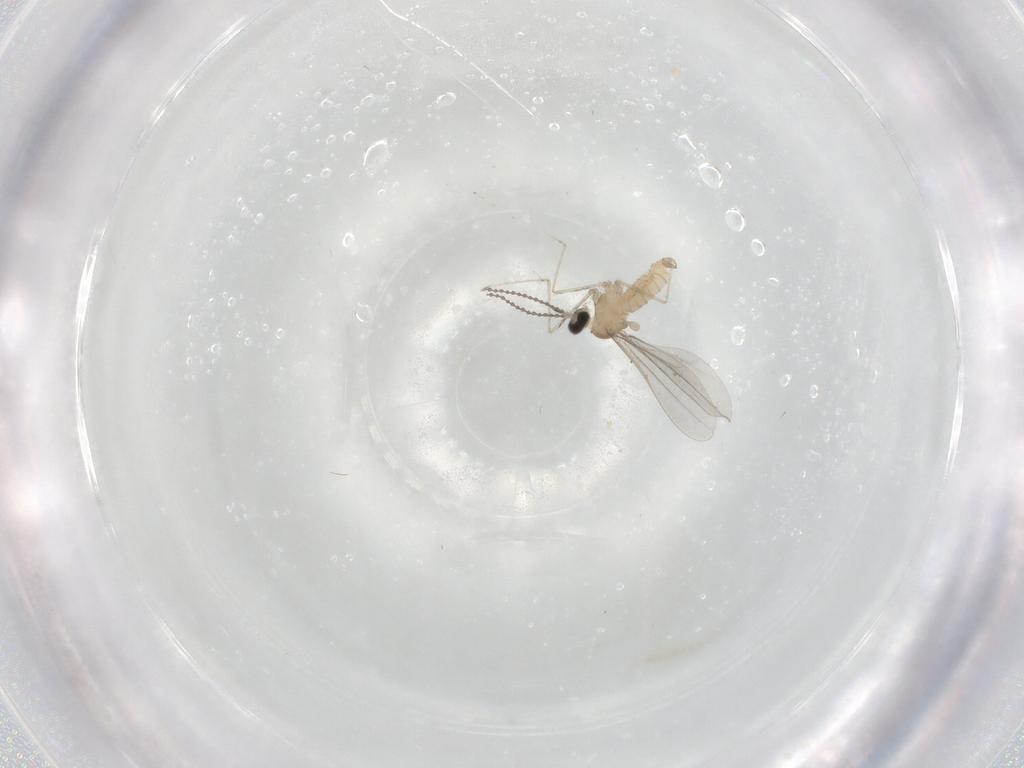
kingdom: Animalia
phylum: Arthropoda
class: Insecta
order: Diptera
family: Cecidomyiidae
